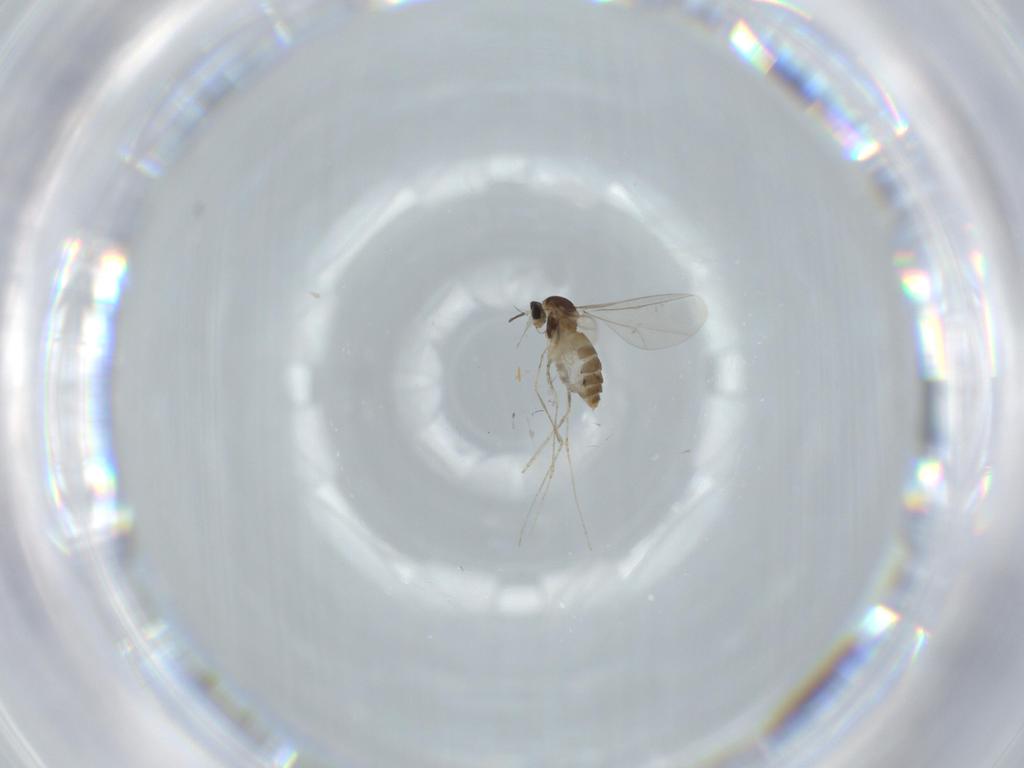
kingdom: Animalia
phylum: Arthropoda
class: Insecta
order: Diptera
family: Cecidomyiidae
